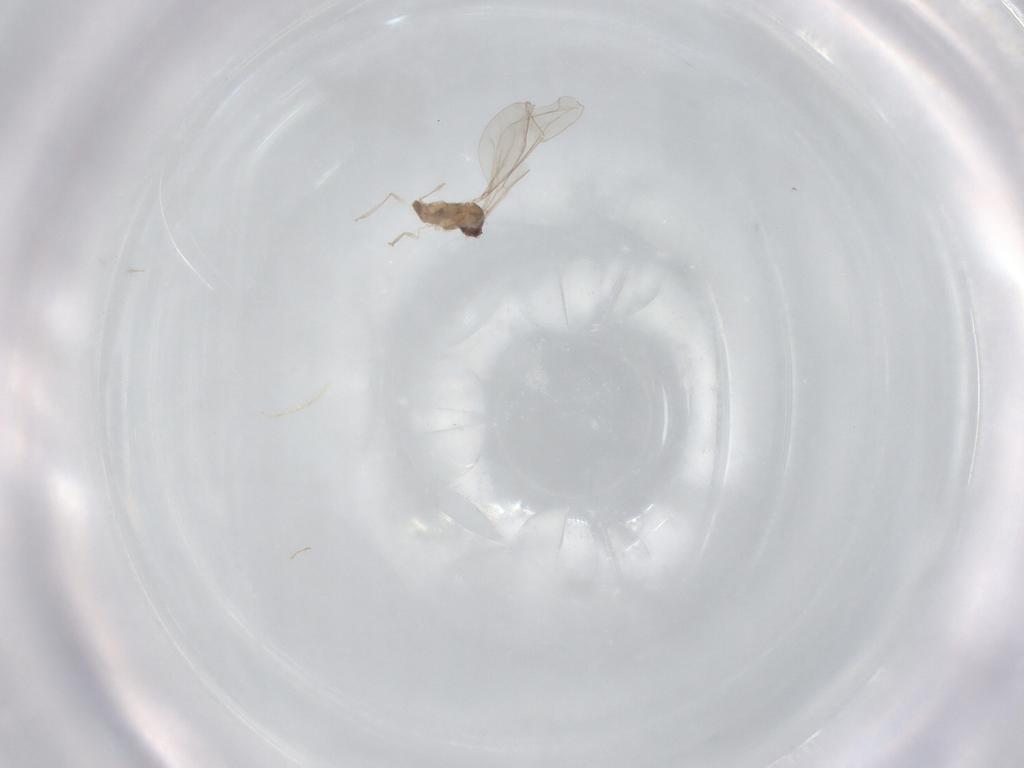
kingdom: Animalia
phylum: Arthropoda
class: Insecta
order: Diptera
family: Cecidomyiidae
